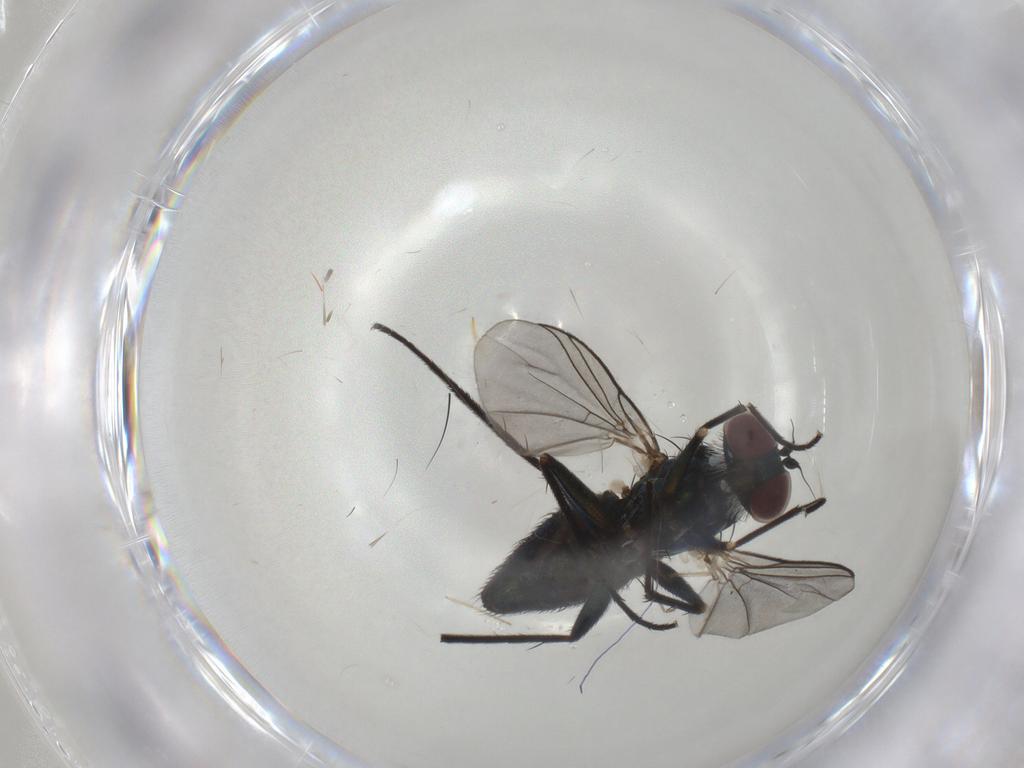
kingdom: Animalia
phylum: Arthropoda
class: Insecta
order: Diptera
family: Dolichopodidae
